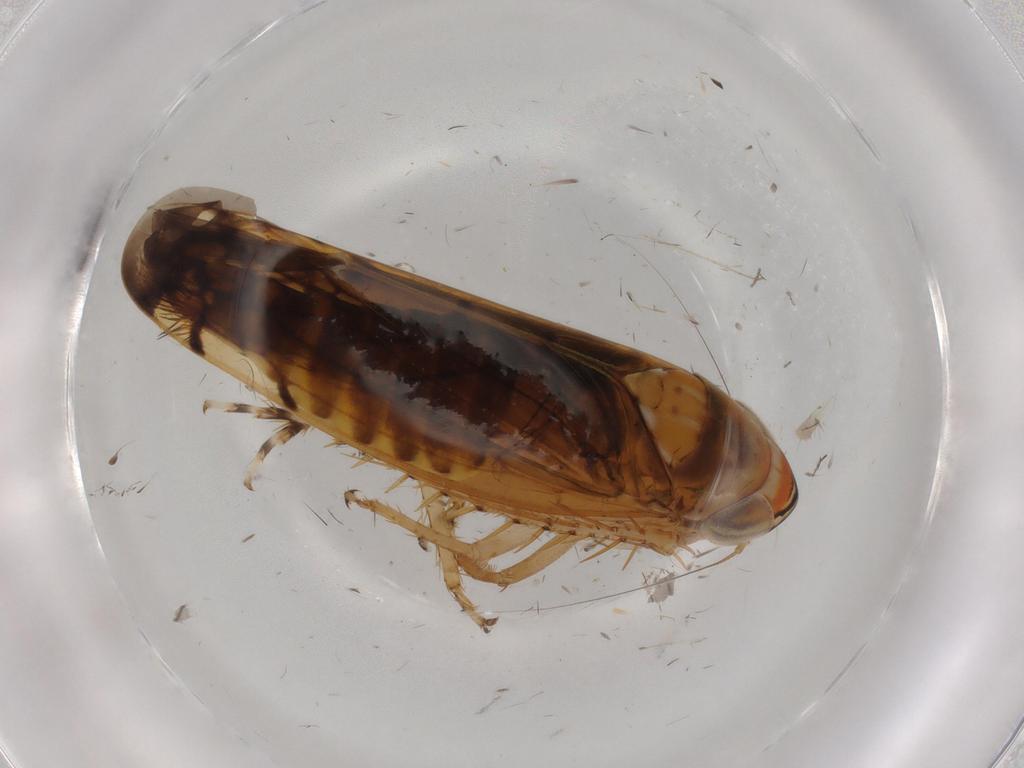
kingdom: Animalia
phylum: Arthropoda
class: Insecta
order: Hemiptera
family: Cicadellidae
